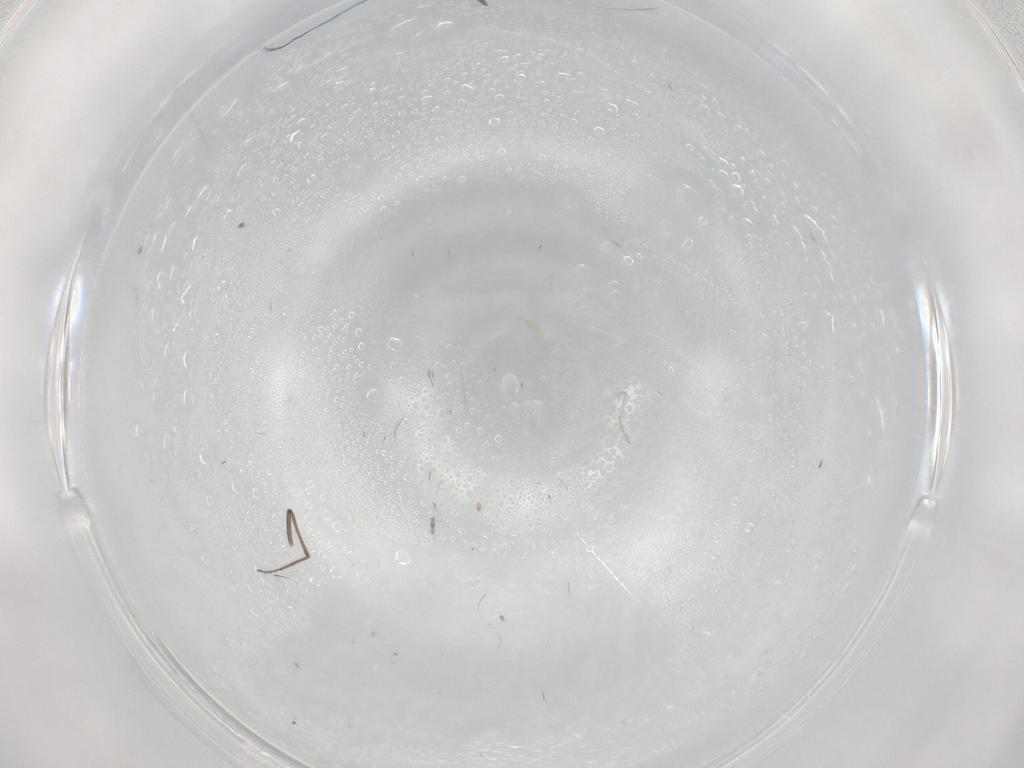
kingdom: Animalia
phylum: Arthropoda
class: Insecta
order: Diptera
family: Cecidomyiidae
